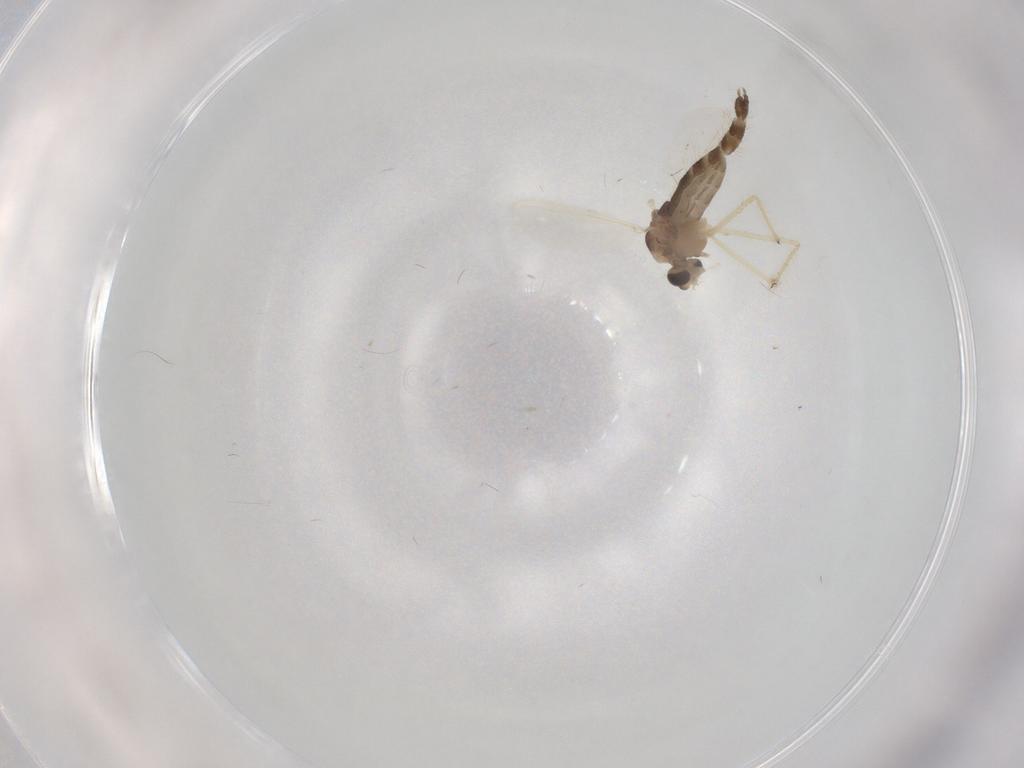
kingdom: Animalia
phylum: Arthropoda
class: Insecta
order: Diptera
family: Chironomidae
